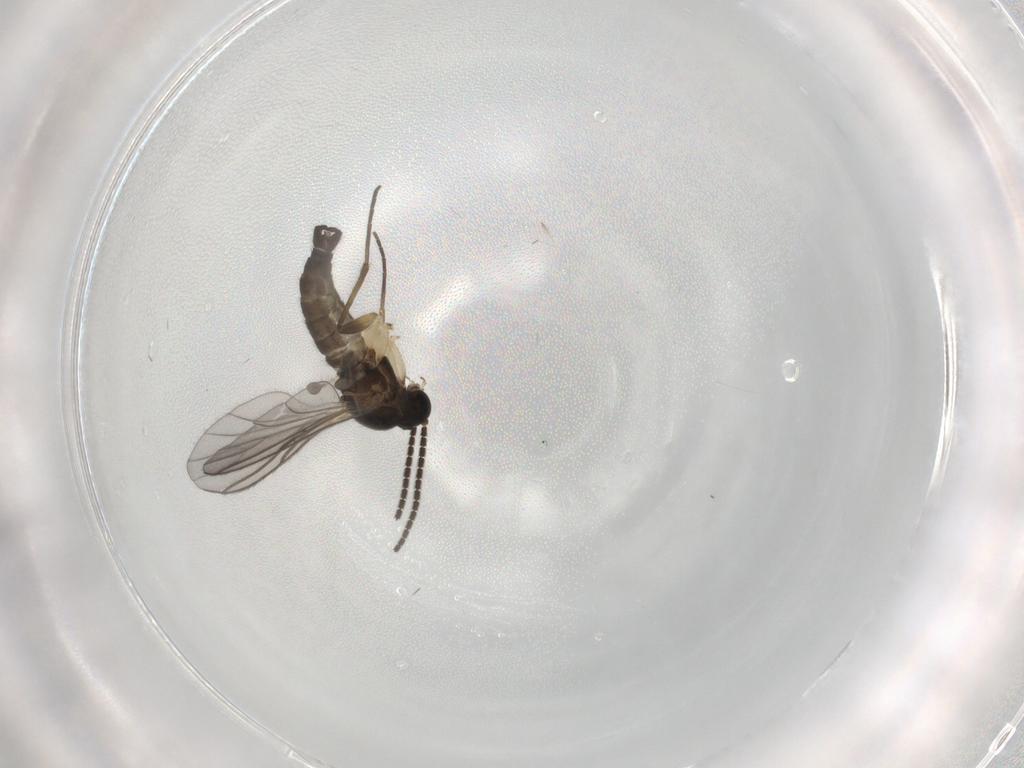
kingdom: Animalia
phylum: Arthropoda
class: Insecta
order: Diptera
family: Sciaridae
